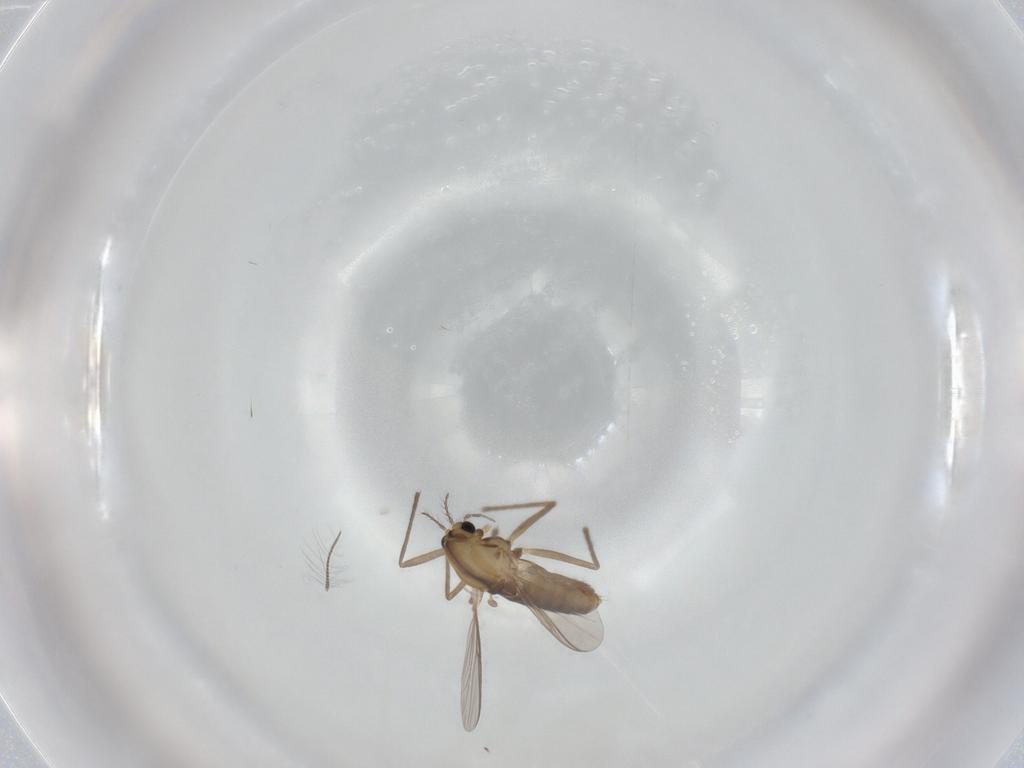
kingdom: Animalia
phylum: Arthropoda
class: Insecta
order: Diptera
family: Chironomidae
